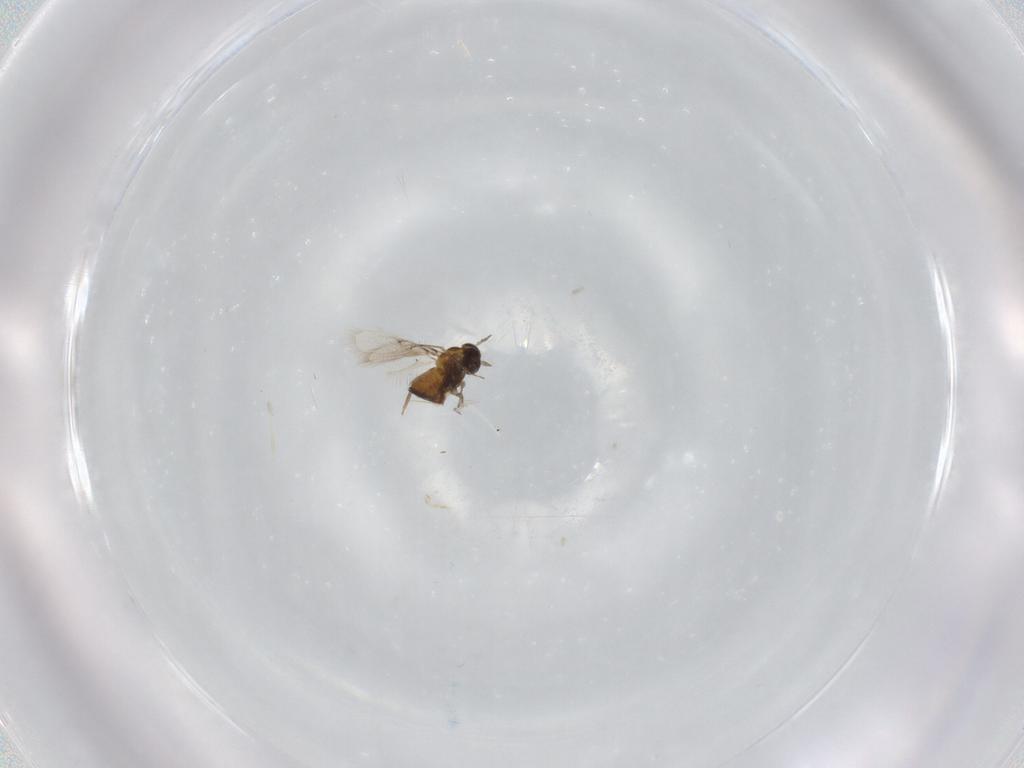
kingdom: Animalia
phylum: Arthropoda
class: Insecta
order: Hymenoptera
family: Trichogrammatidae
